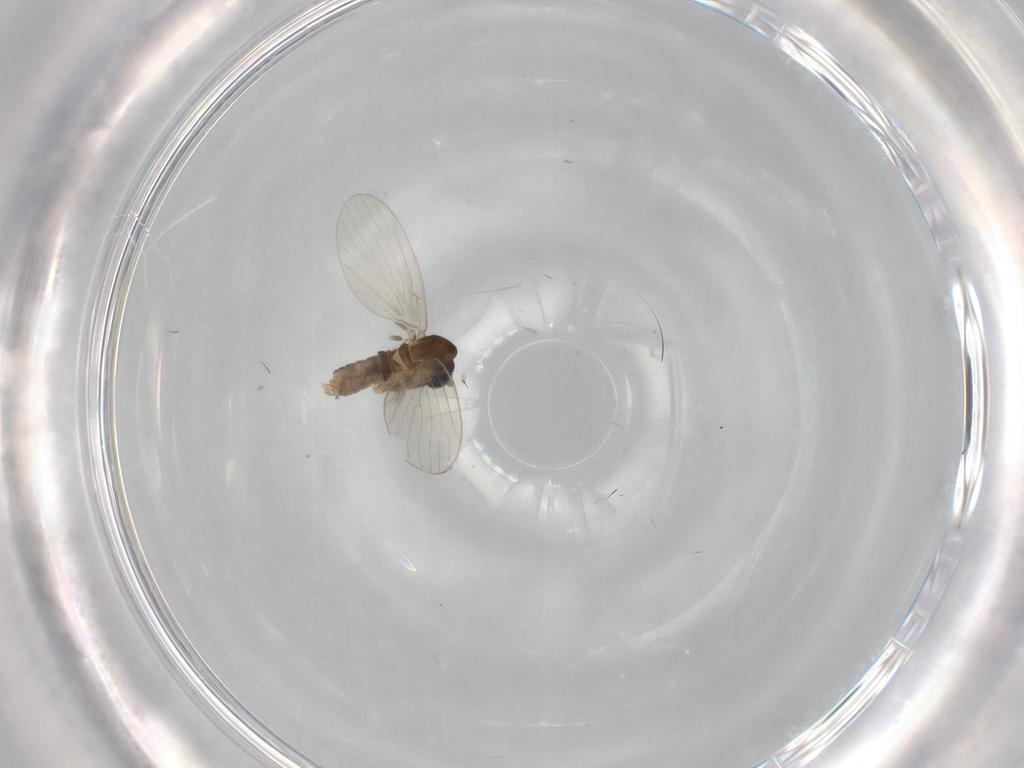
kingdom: Animalia
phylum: Arthropoda
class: Insecta
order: Diptera
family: Psychodidae
